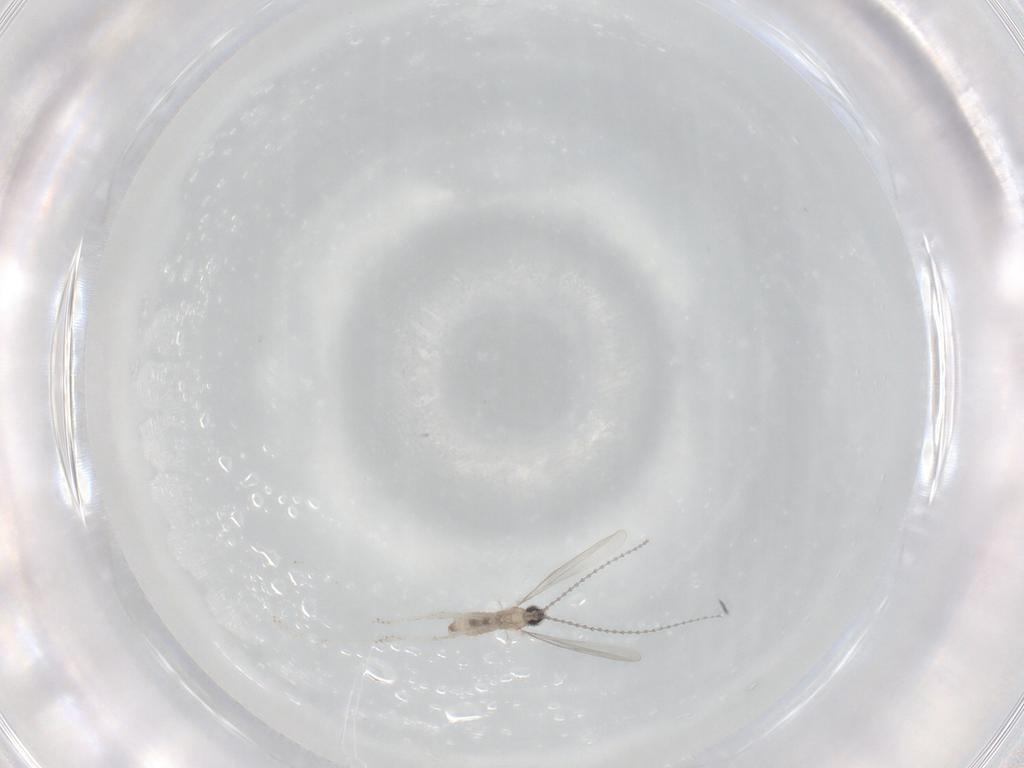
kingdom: Animalia
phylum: Arthropoda
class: Insecta
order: Diptera
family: Cecidomyiidae
